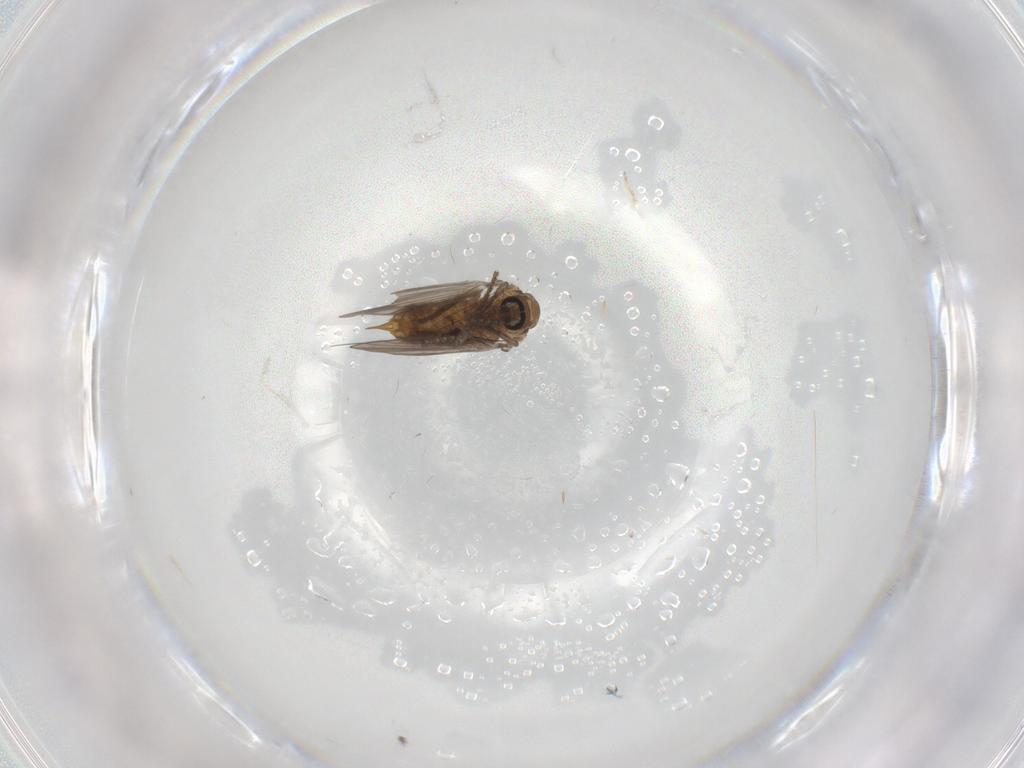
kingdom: Animalia
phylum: Arthropoda
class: Insecta
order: Diptera
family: Psychodidae
